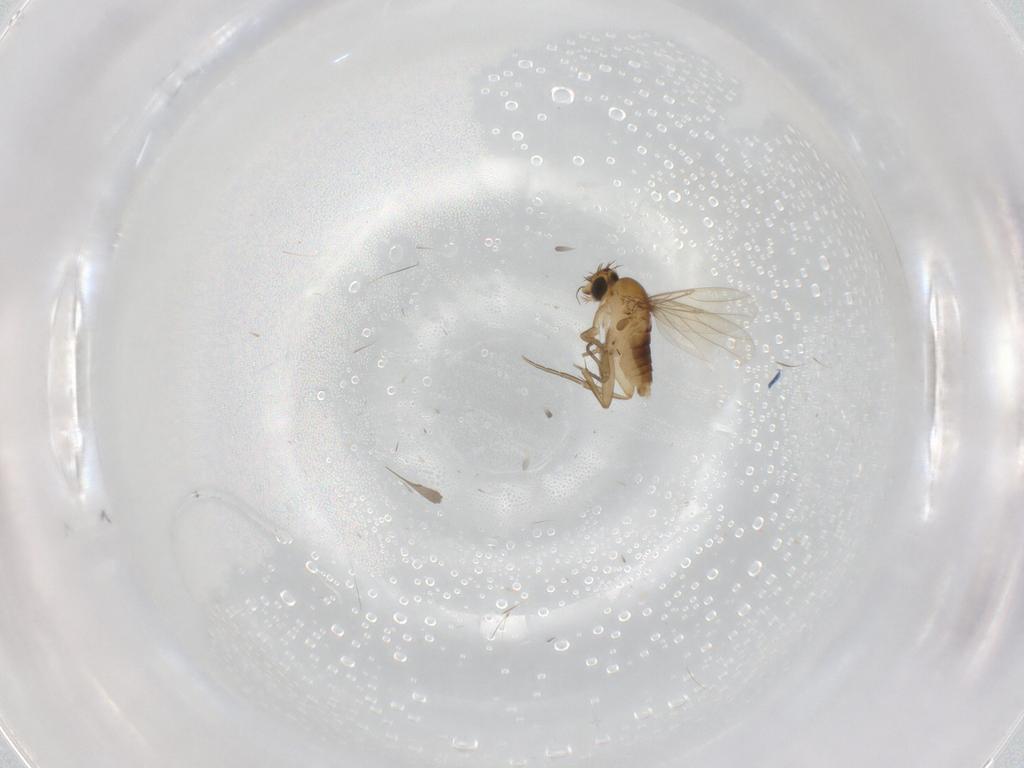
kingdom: Animalia
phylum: Arthropoda
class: Insecta
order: Diptera
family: Phoridae
